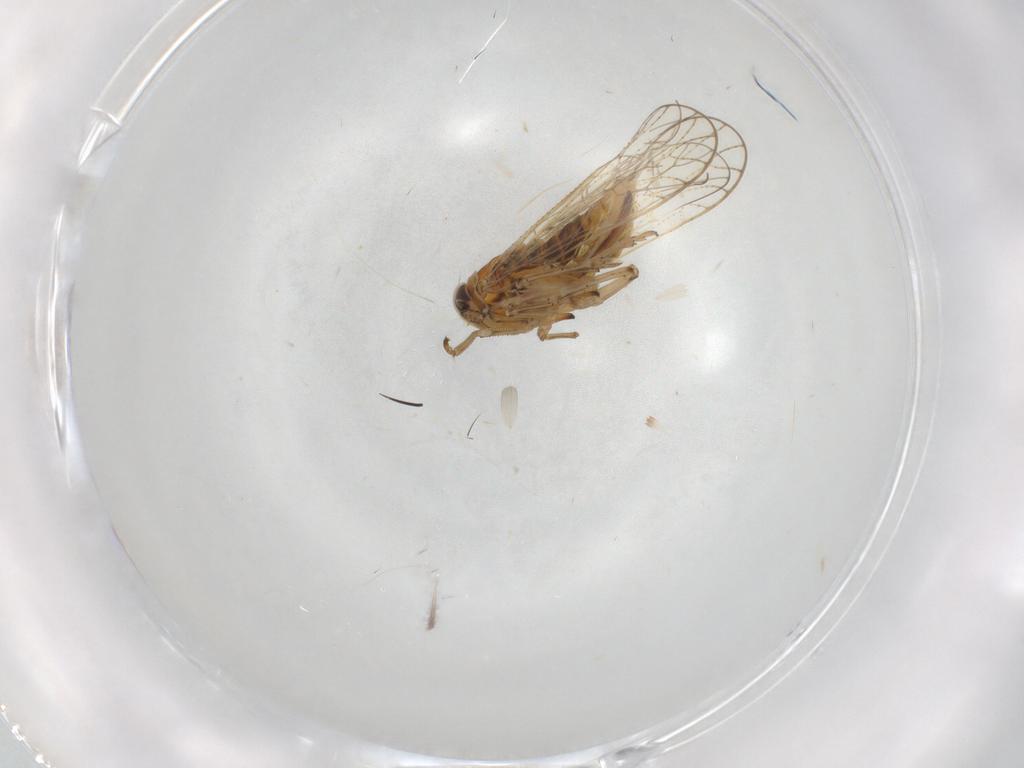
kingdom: Animalia
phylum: Arthropoda
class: Insecta
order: Hemiptera
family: Cicadellidae
